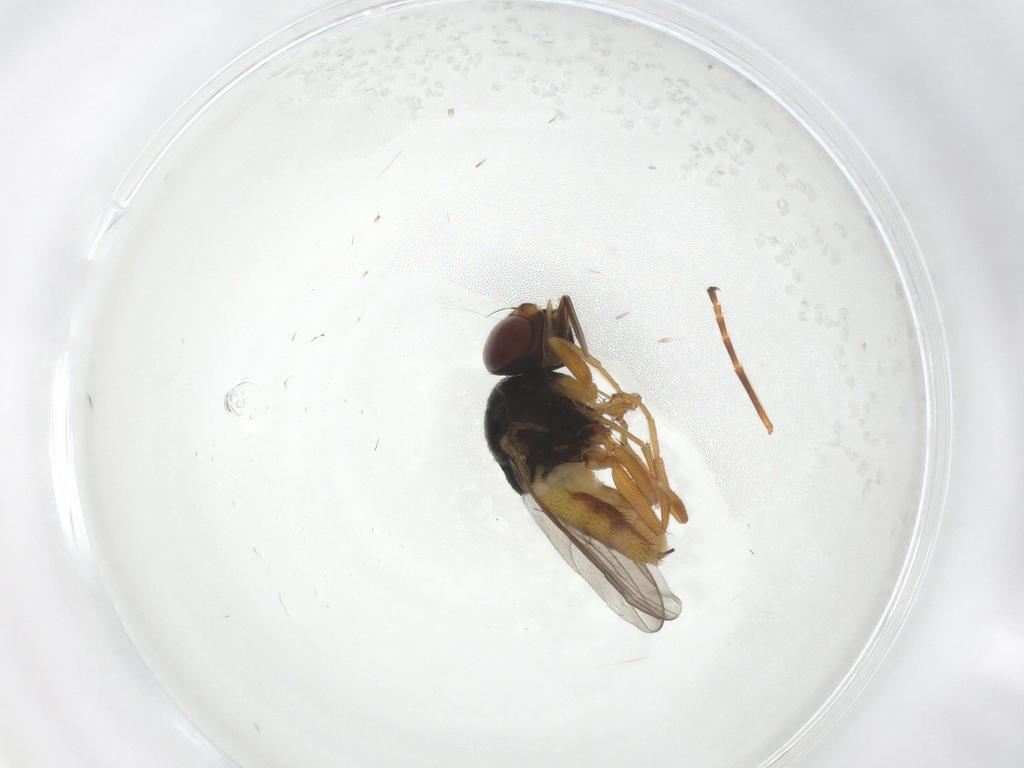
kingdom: Animalia
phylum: Arthropoda
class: Insecta
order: Diptera
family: Chloropidae
